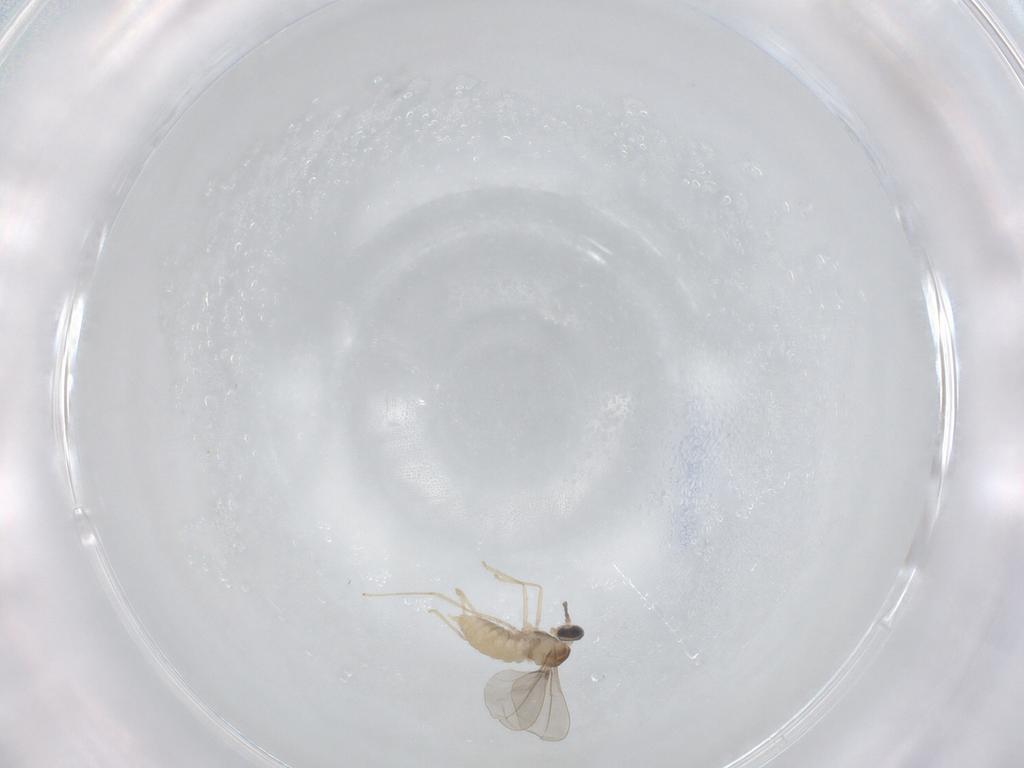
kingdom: Animalia
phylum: Arthropoda
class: Insecta
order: Diptera
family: Cecidomyiidae
